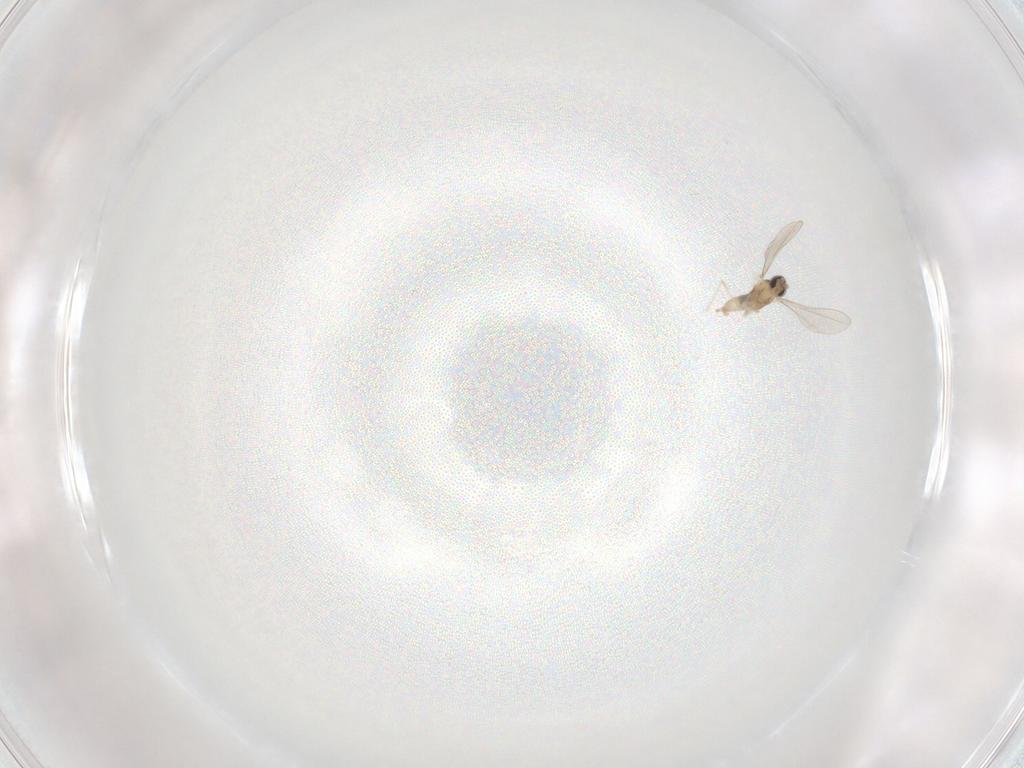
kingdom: Animalia
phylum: Arthropoda
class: Insecta
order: Diptera
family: Cecidomyiidae
